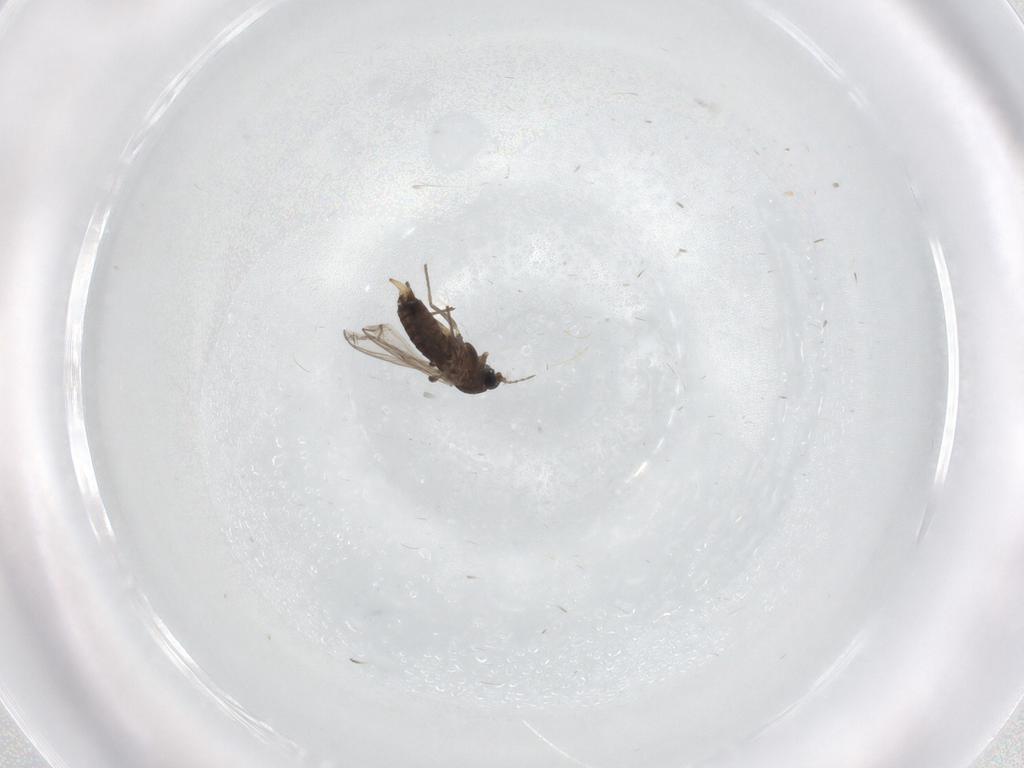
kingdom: Animalia
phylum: Arthropoda
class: Insecta
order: Diptera
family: Chironomidae
